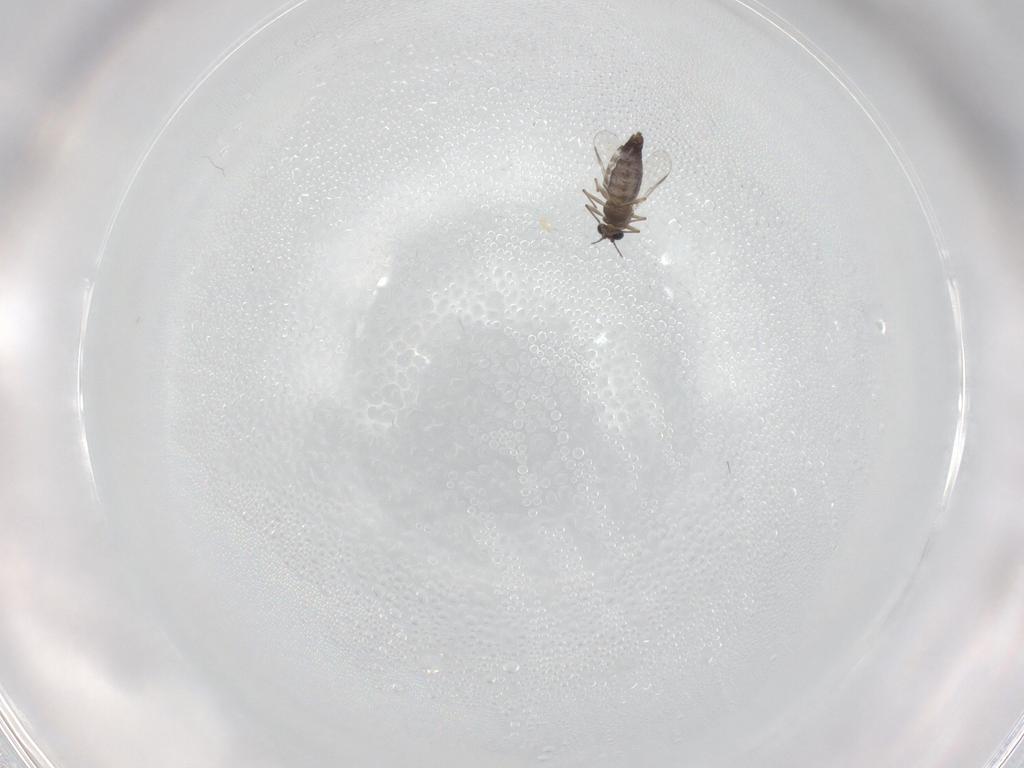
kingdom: Animalia
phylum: Arthropoda
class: Insecta
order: Diptera
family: Chironomidae
